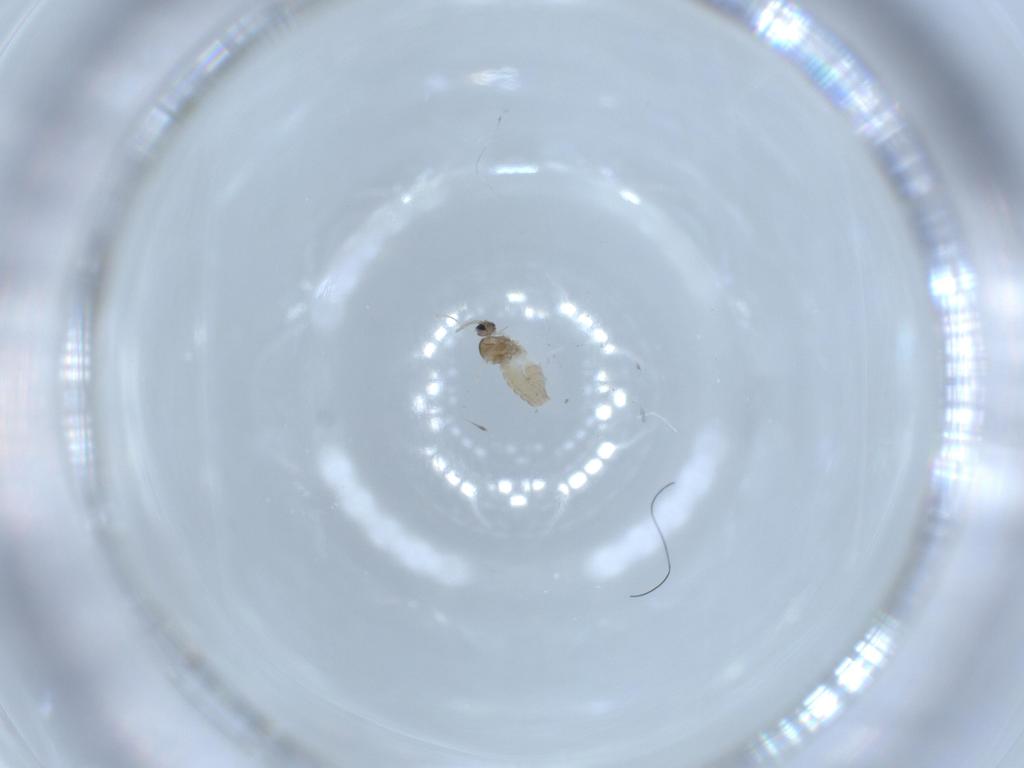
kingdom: Animalia
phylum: Arthropoda
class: Insecta
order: Diptera
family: Cecidomyiidae
